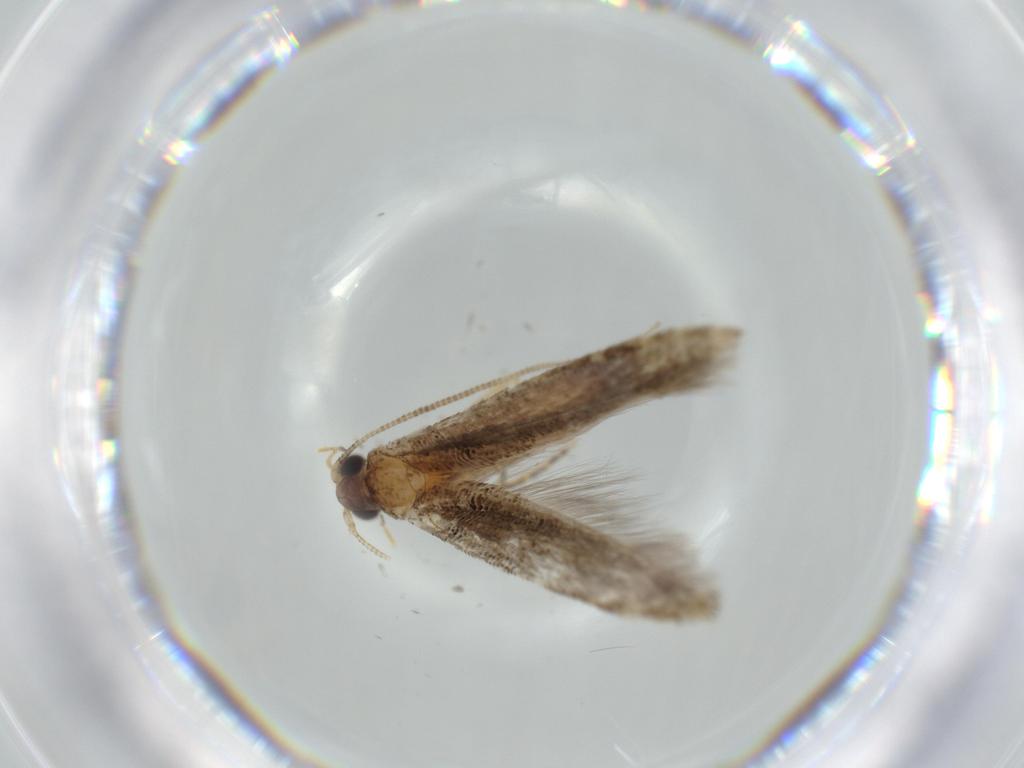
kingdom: Animalia
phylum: Arthropoda
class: Insecta
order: Lepidoptera
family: Tineidae
